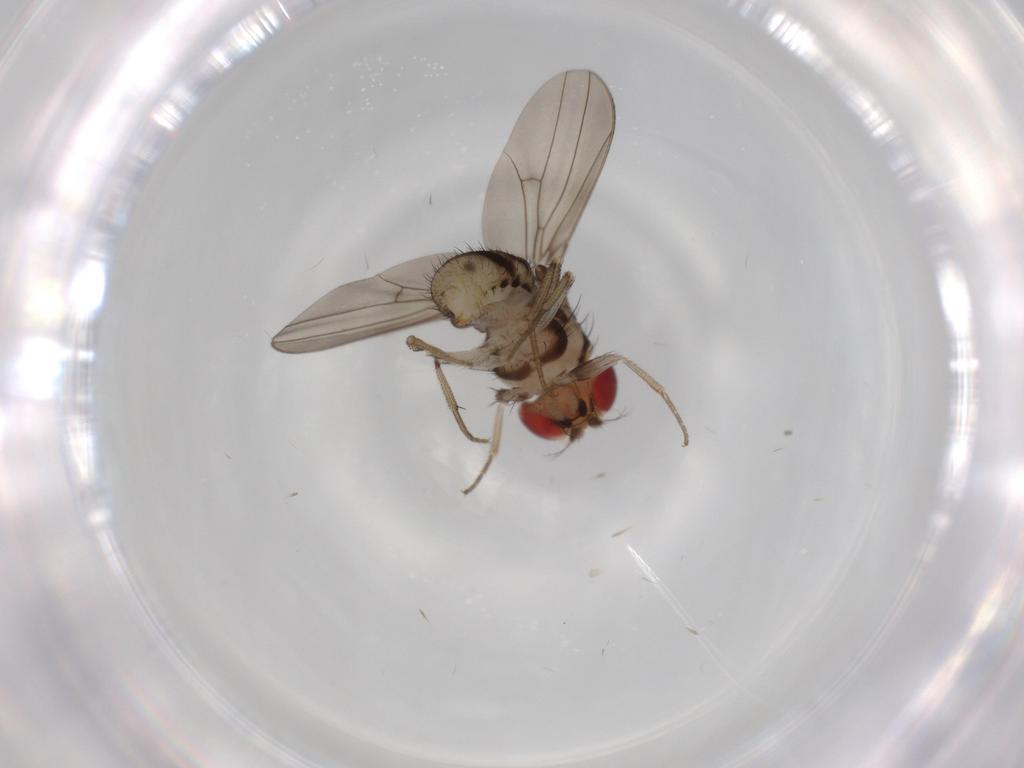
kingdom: Animalia
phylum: Arthropoda
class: Insecta
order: Diptera
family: Drosophilidae
